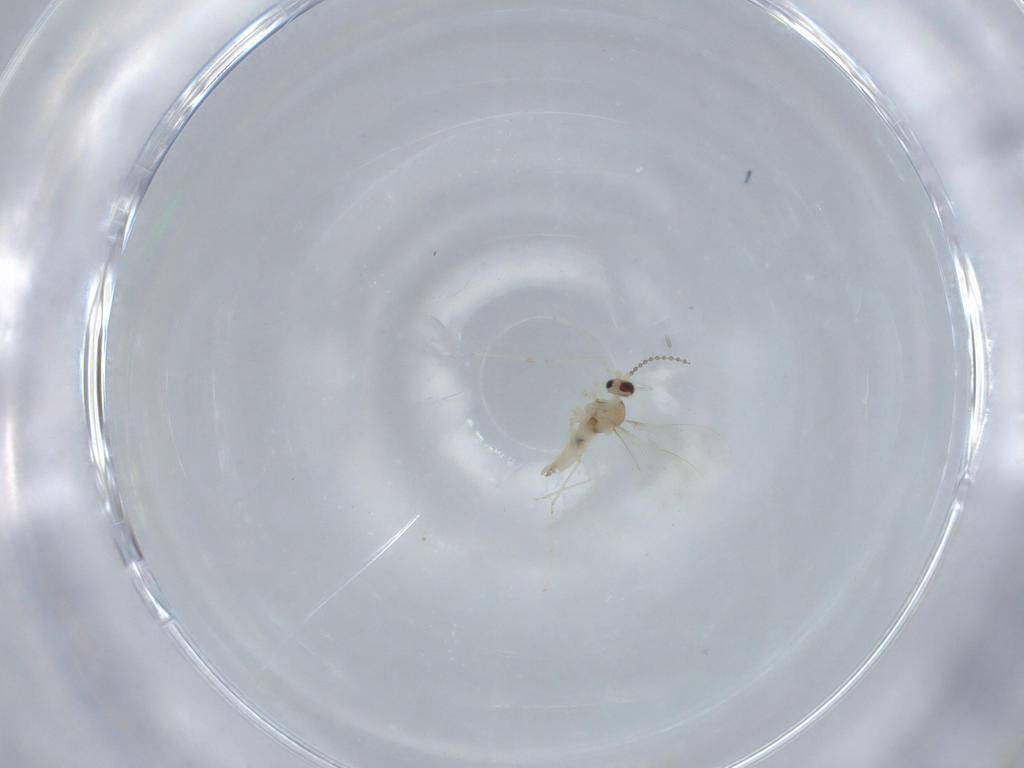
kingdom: Animalia
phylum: Arthropoda
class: Insecta
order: Diptera
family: Cecidomyiidae
